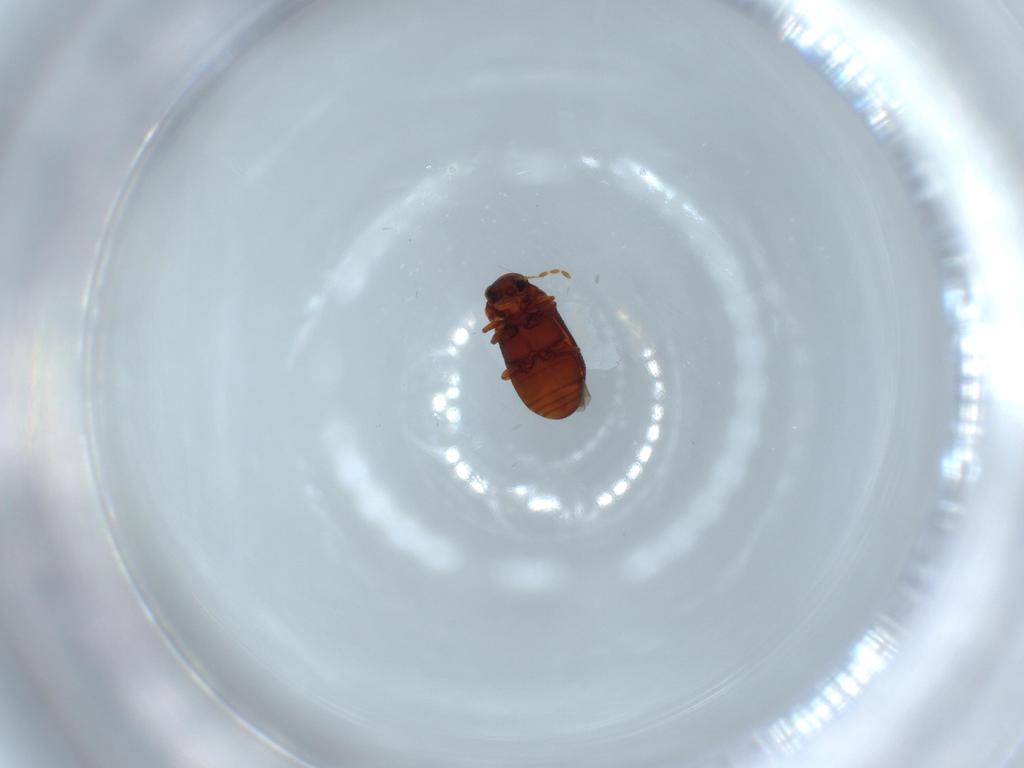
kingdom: Animalia
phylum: Arthropoda
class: Insecta
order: Coleoptera
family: Ptinidae
